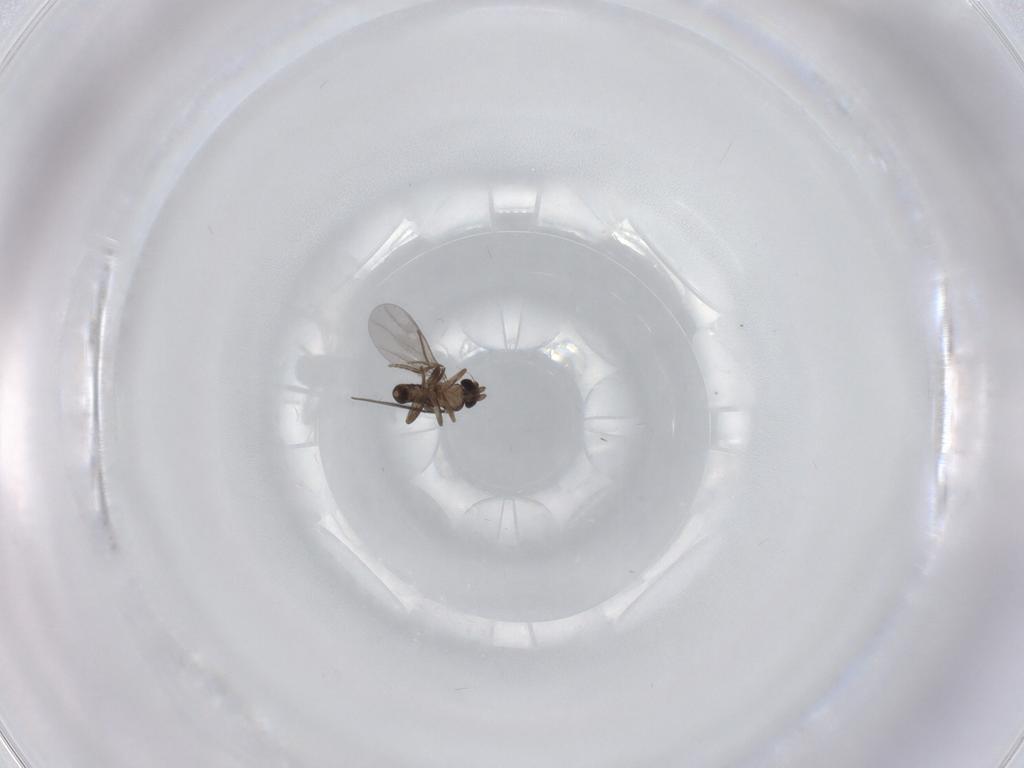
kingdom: Animalia
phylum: Arthropoda
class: Insecta
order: Diptera
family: Chironomidae
